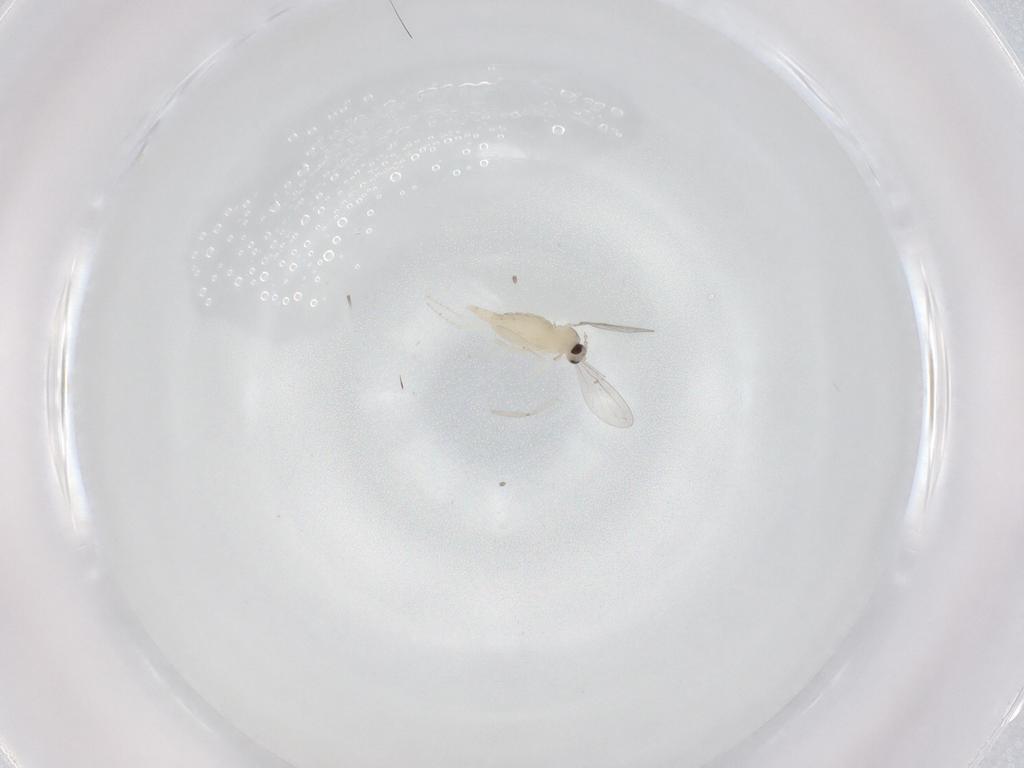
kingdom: Animalia
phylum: Arthropoda
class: Insecta
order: Diptera
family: Cecidomyiidae
